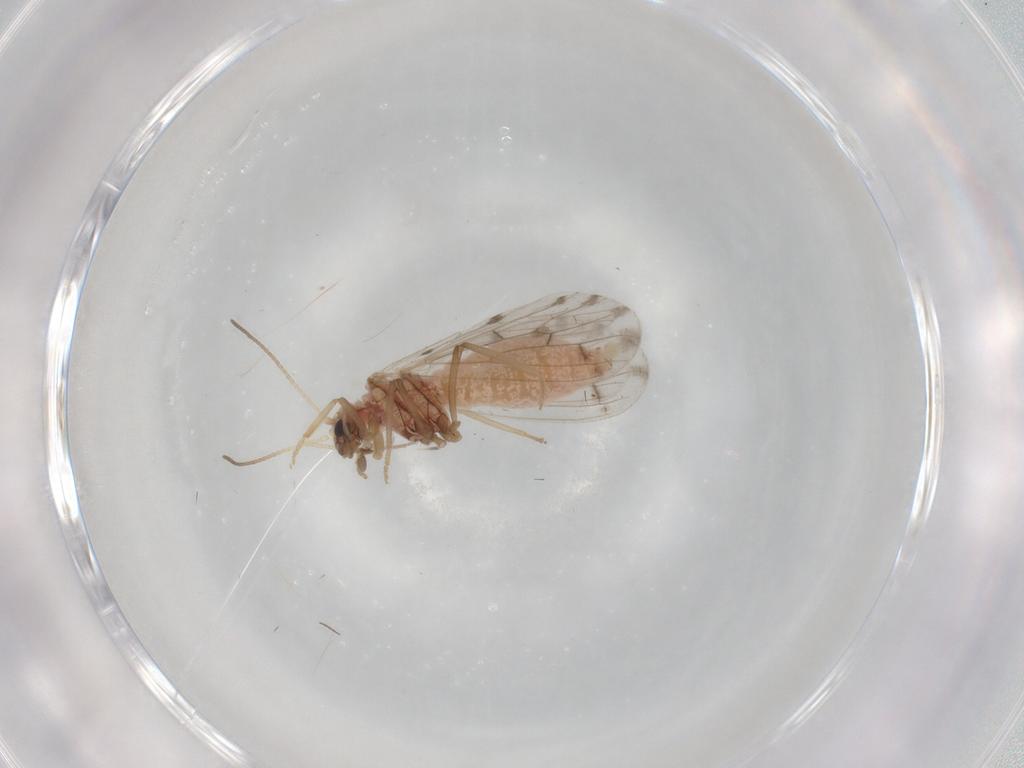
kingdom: Animalia
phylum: Arthropoda
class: Insecta
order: Neuroptera
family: Coniopterygidae
